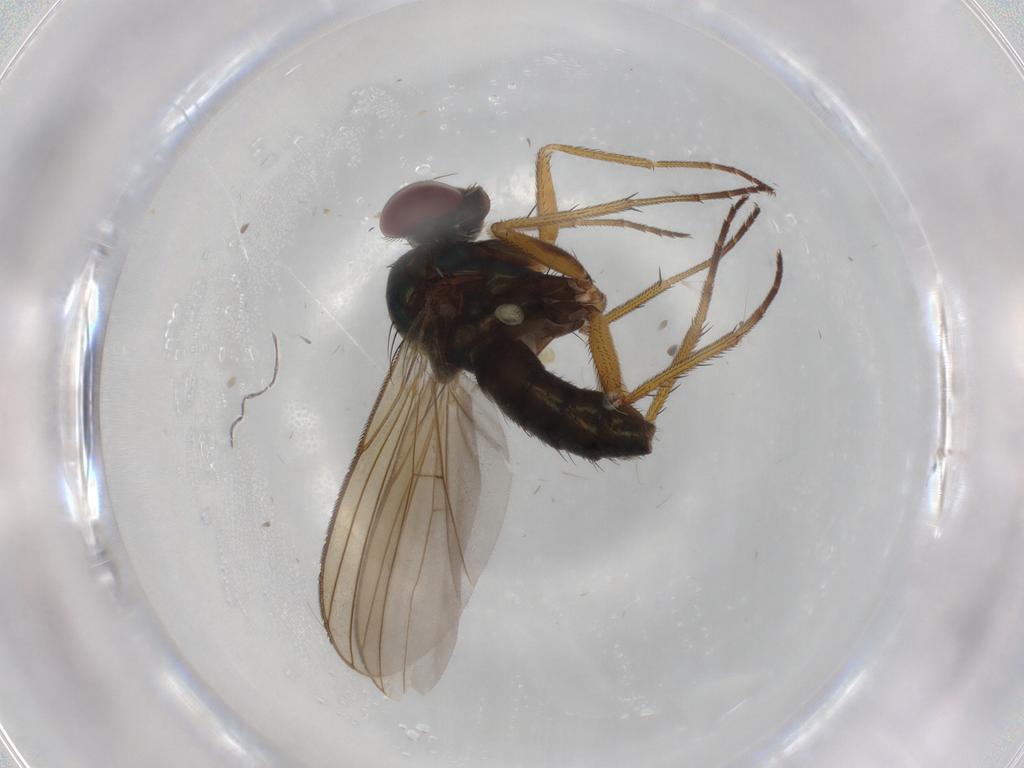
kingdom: Animalia
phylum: Arthropoda
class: Insecta
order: Diptera
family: Dolichopodidae
